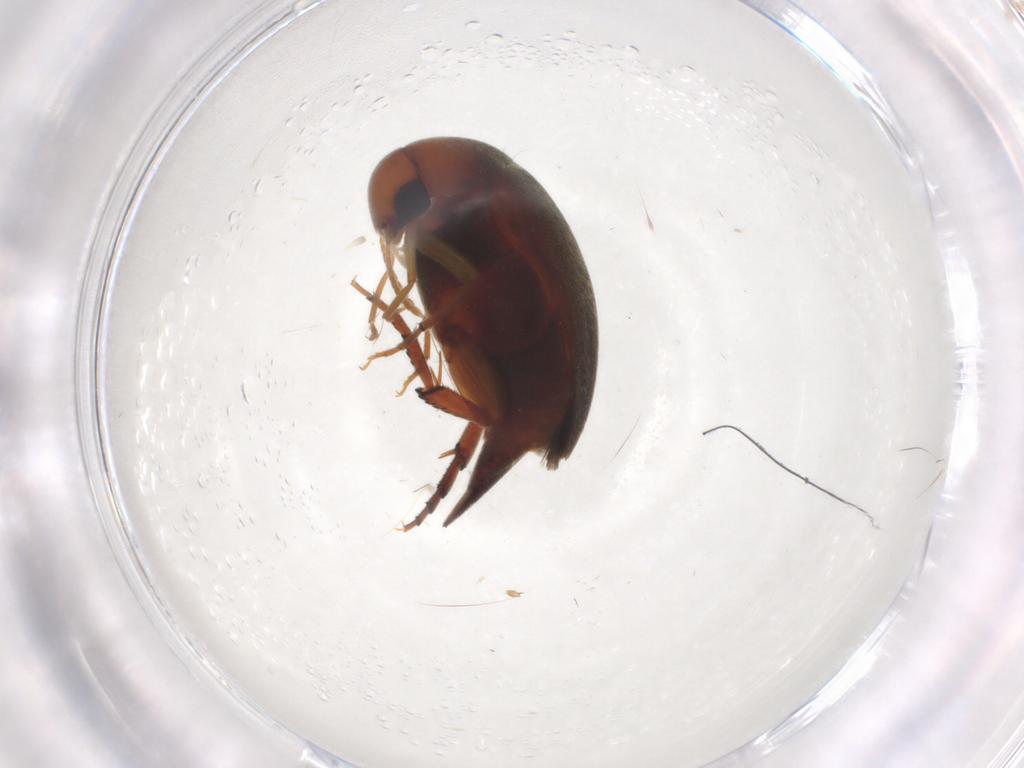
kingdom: Animalia
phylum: Arthropoda
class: Insecta
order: Coleoptera
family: Mordellidae
